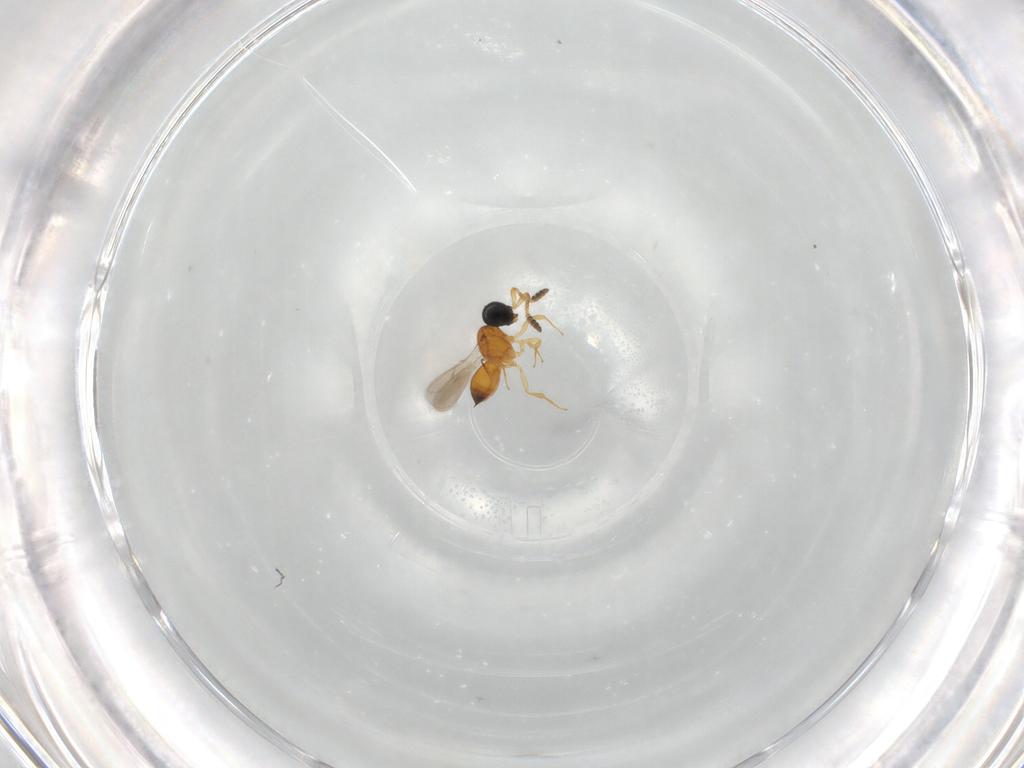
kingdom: Animalia
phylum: Arthropoda
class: Insecta
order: Hymenoptera
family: Scelionidae
